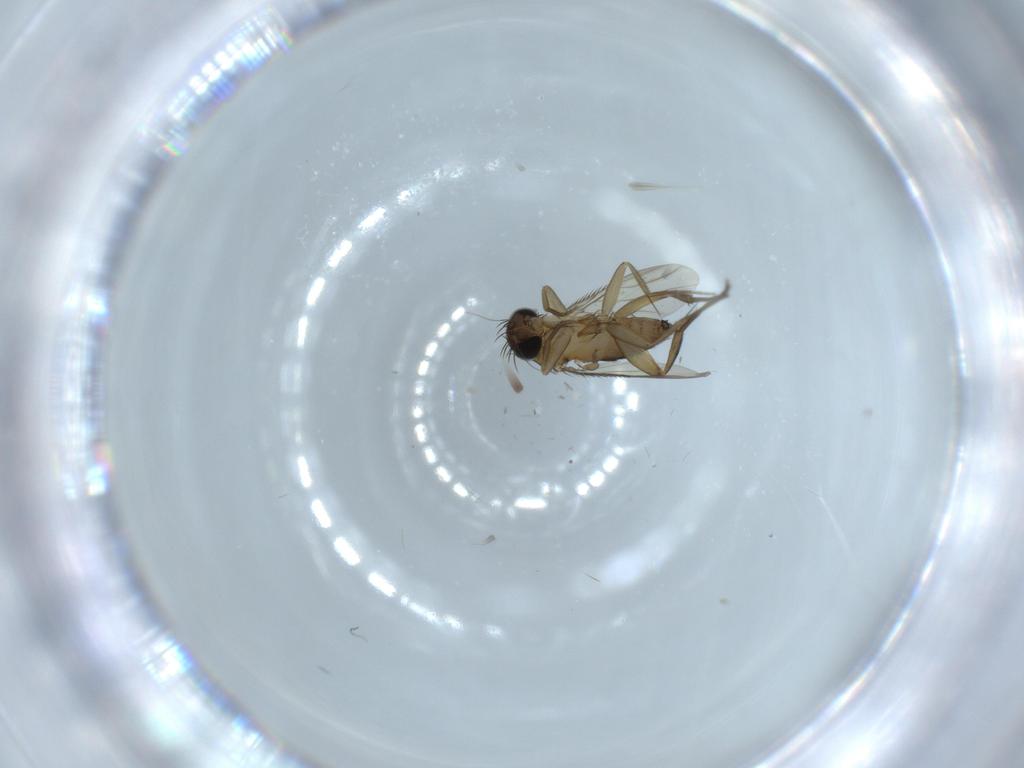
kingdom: Animalia
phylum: Arthropoda
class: Insecta
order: Diptera
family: Phoridae
